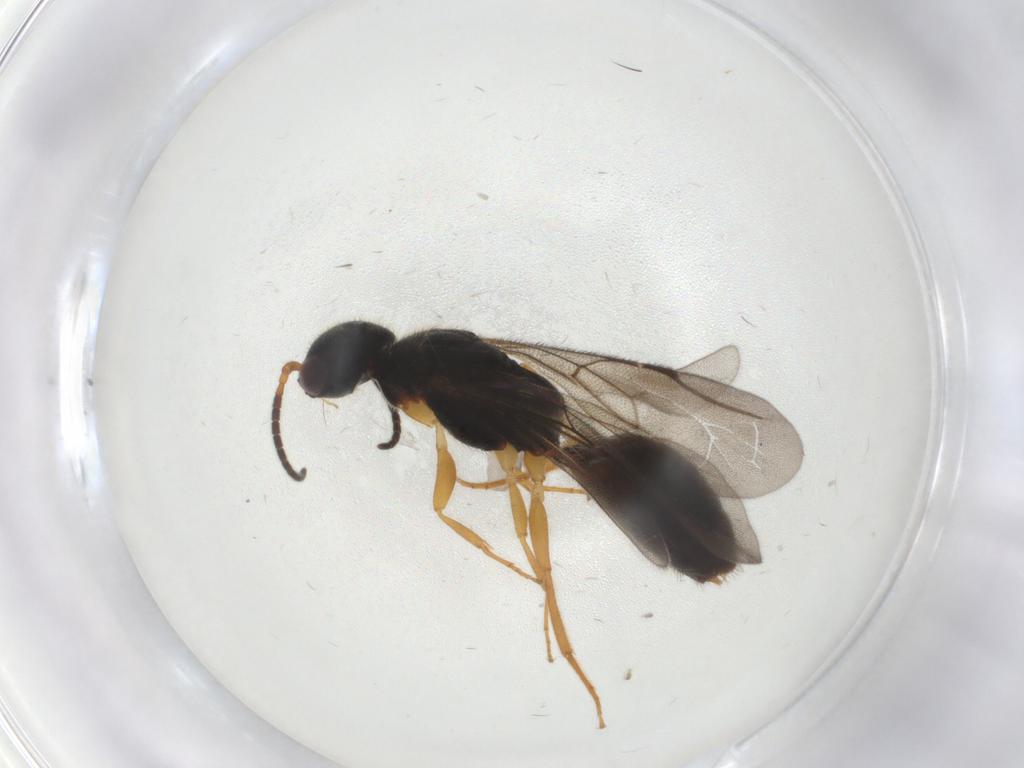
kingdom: Animalia
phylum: Arthropoda
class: Insecta
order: Hymenoptera
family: Bethylidae
